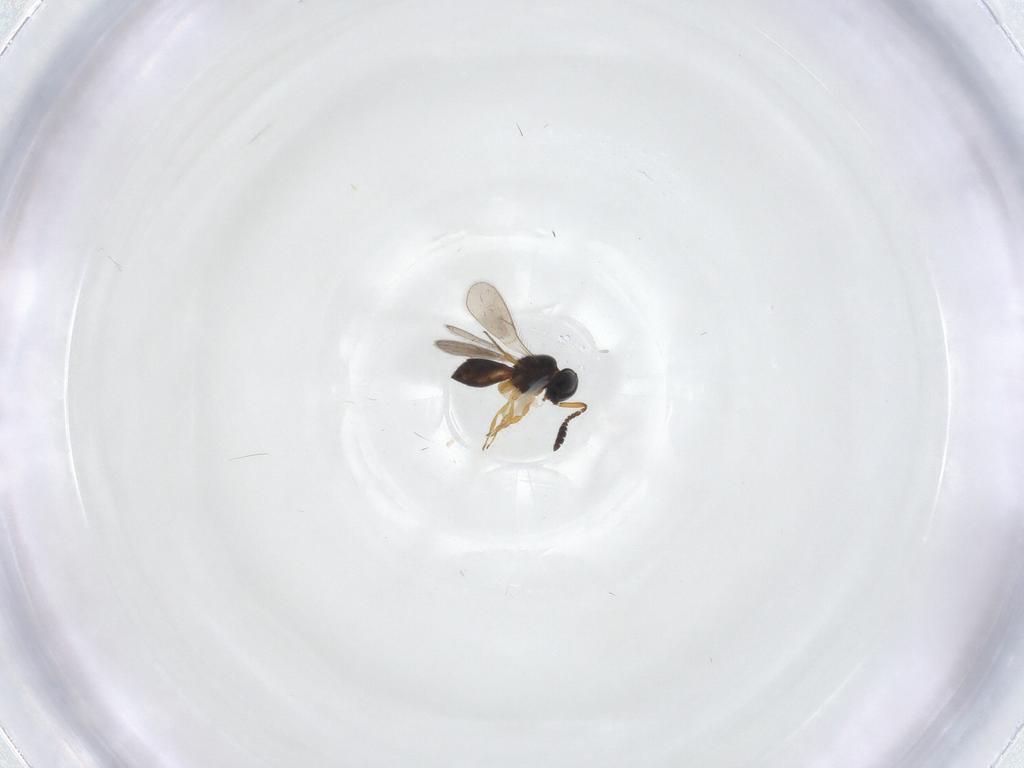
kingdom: Animalia
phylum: Arthropoda
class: Insecta
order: Hymenoptera
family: Scelionidae
